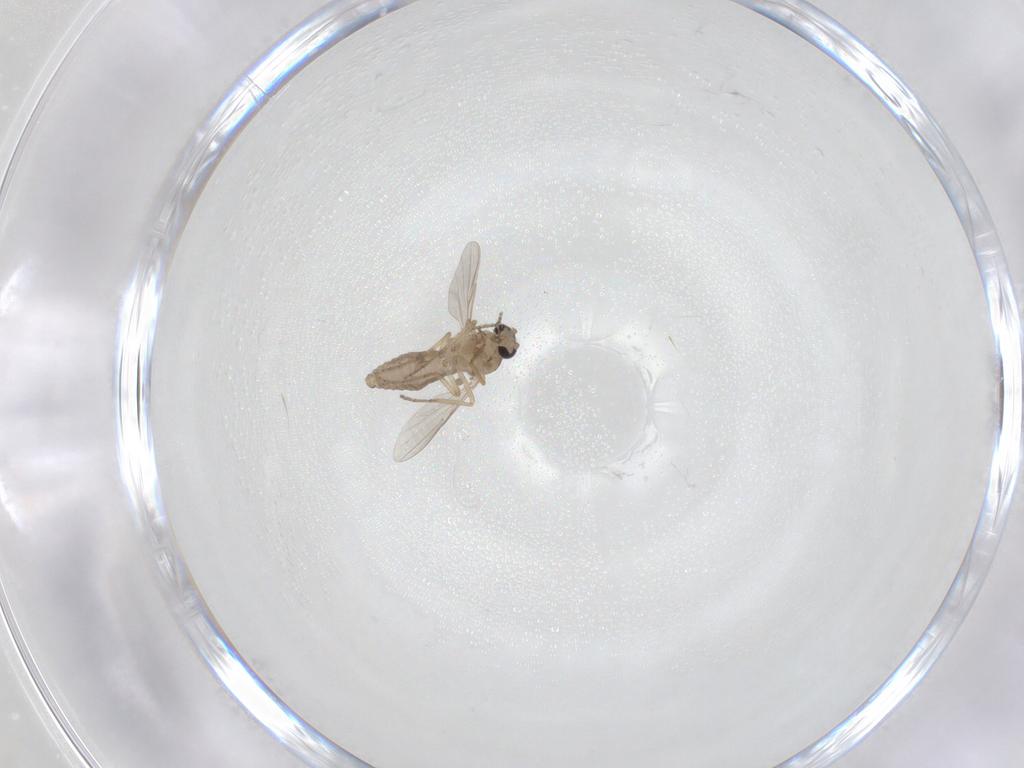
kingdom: Animalia
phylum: Arthropoda
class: Insecta
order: Diptera
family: Ceratopogonidae
